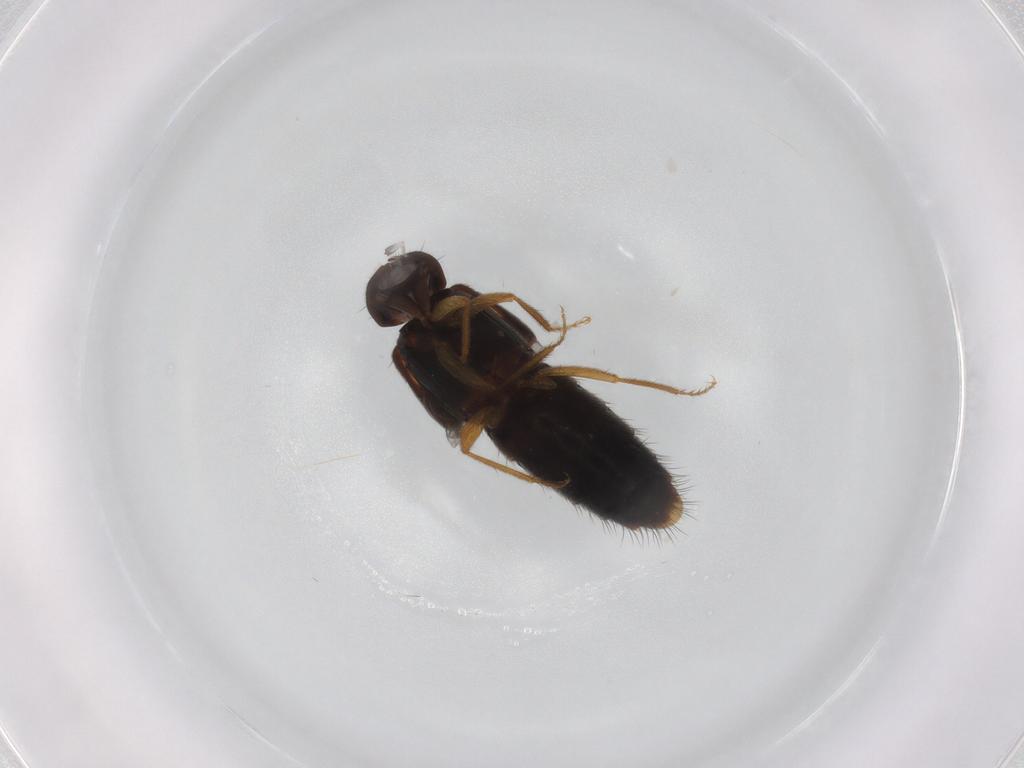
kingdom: Animalia
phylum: Arthropoda
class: Insecta
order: Coleoptera
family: Staphylinidae
